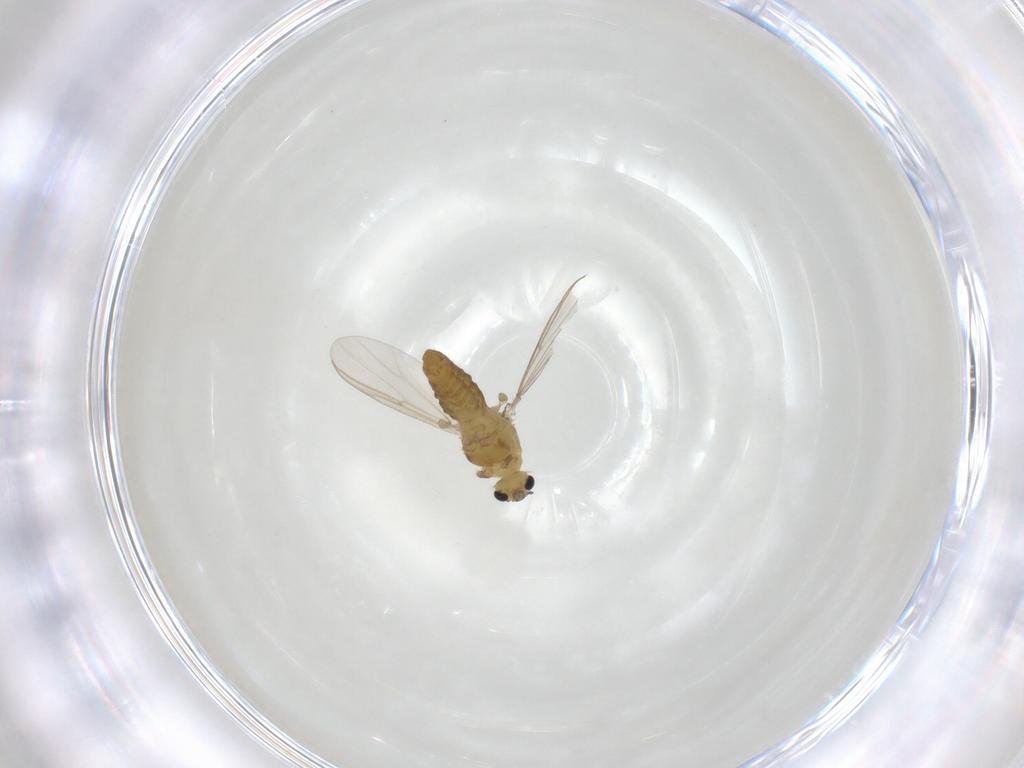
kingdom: Animalia
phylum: Arthropoda
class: Insecta
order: Diptera
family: Chironomidae
